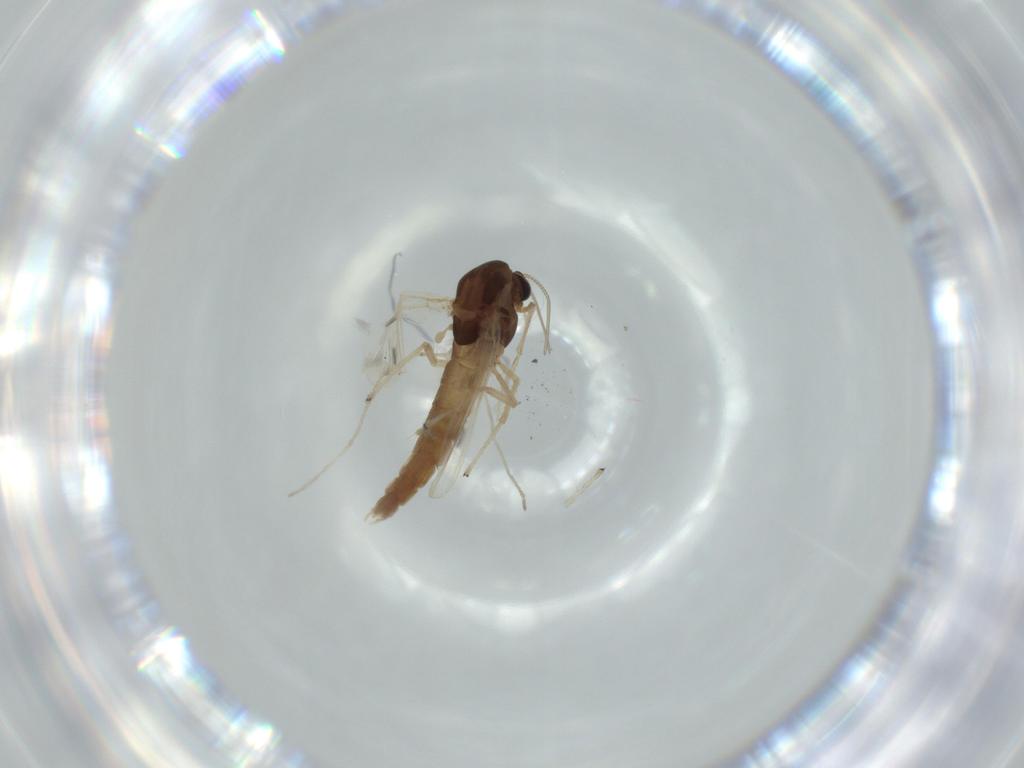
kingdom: Animalia
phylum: Arthropoda
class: Insecta
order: Diptera
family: Chironomidae
